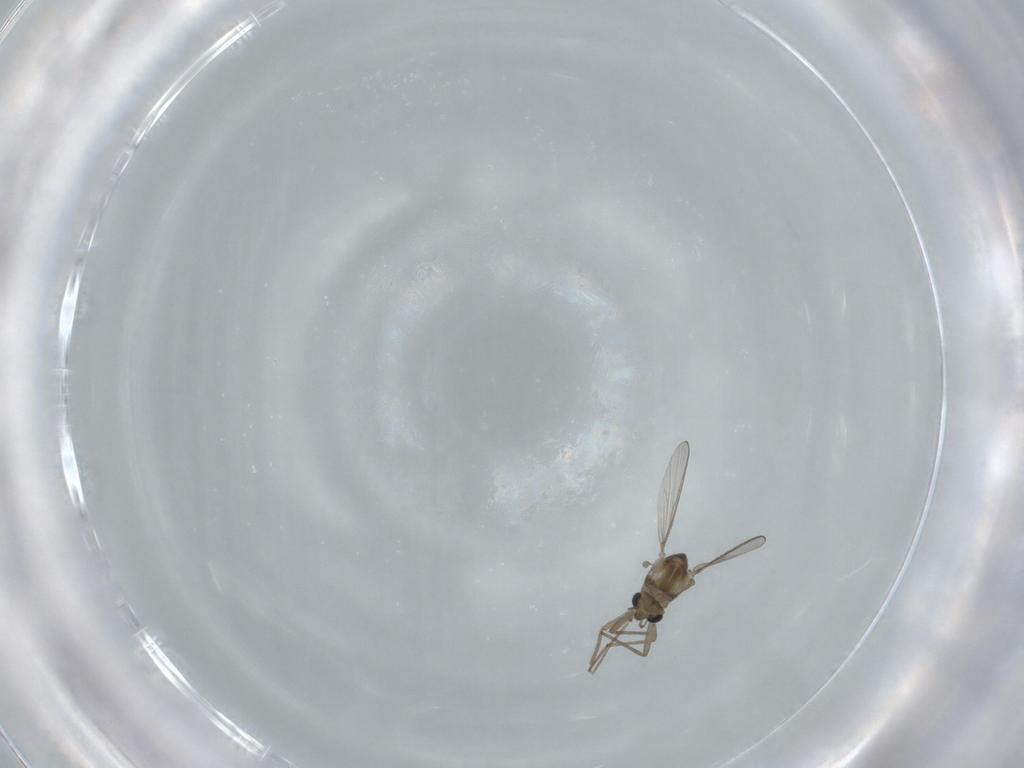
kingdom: Animalia
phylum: Arthropoda
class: Insecta
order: Diptera
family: Chironomidae
